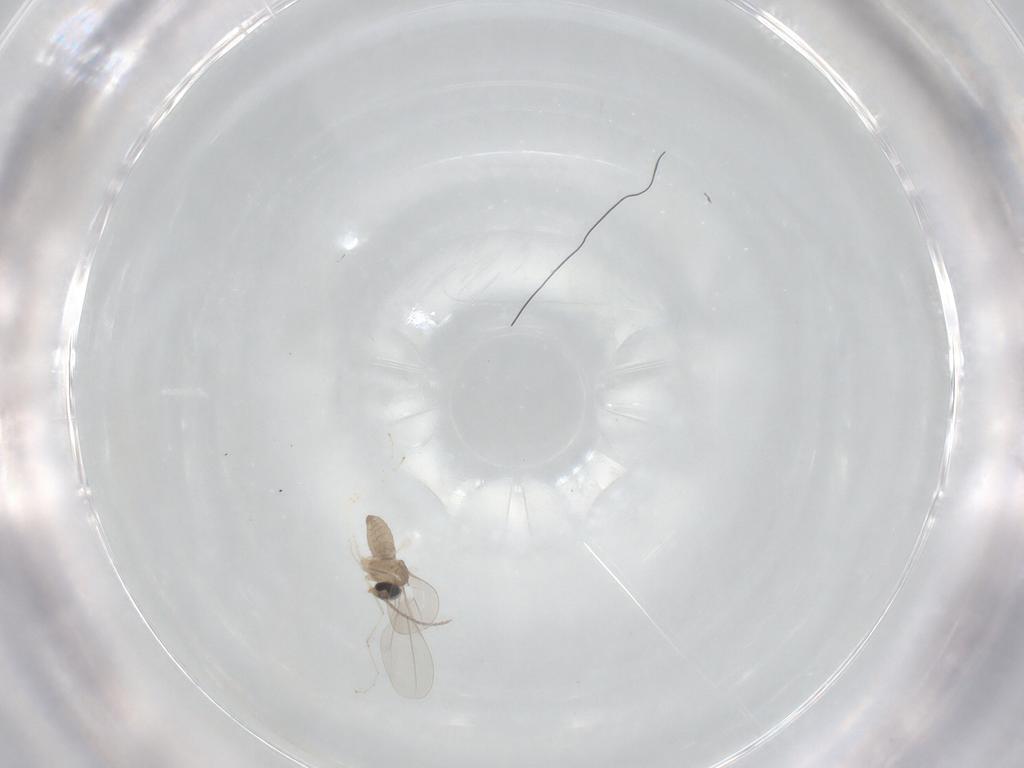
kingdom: Animalia
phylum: Arthropoda
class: Insecta
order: Diptera
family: Cecidomyiidae
